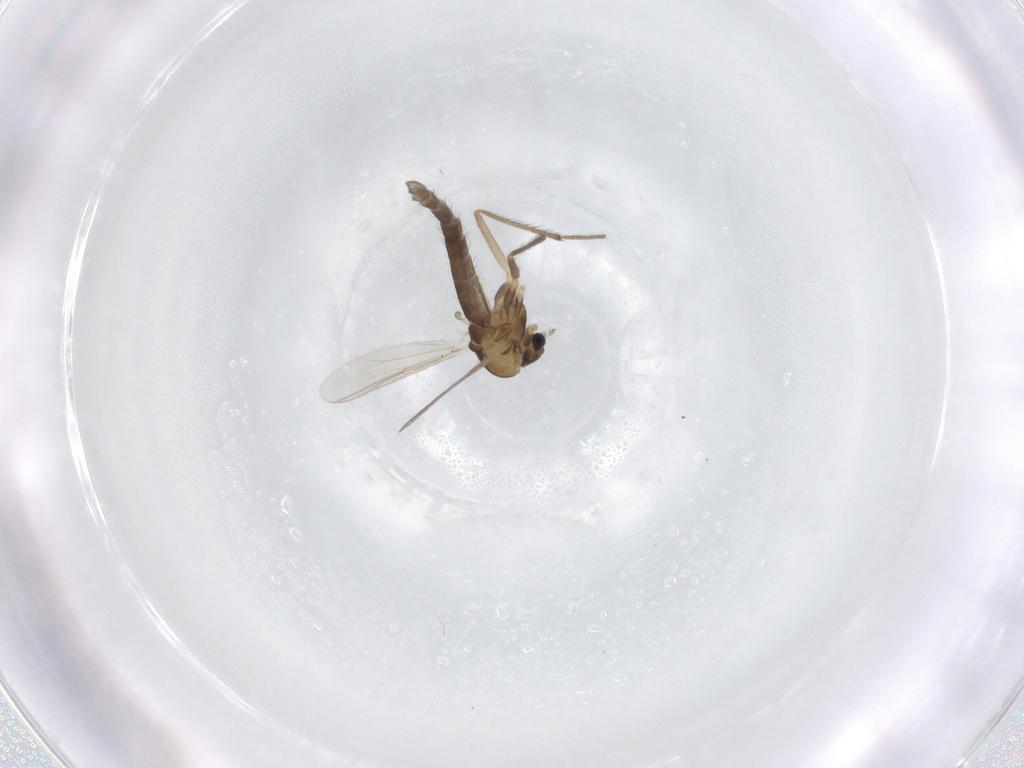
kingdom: Animalia
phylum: Arthropoda
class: Insecta
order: Diptera
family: Chironomidae
